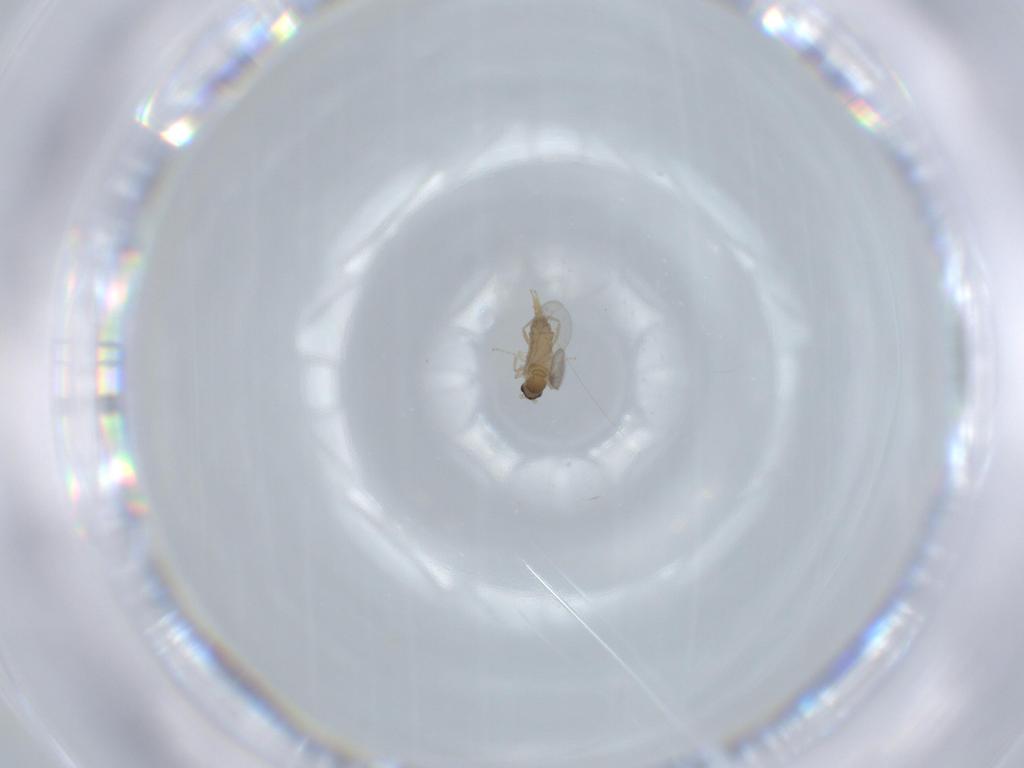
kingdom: Animalia
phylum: Arthropoda
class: Insecta
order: Diptera
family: Cecidomyiidae
